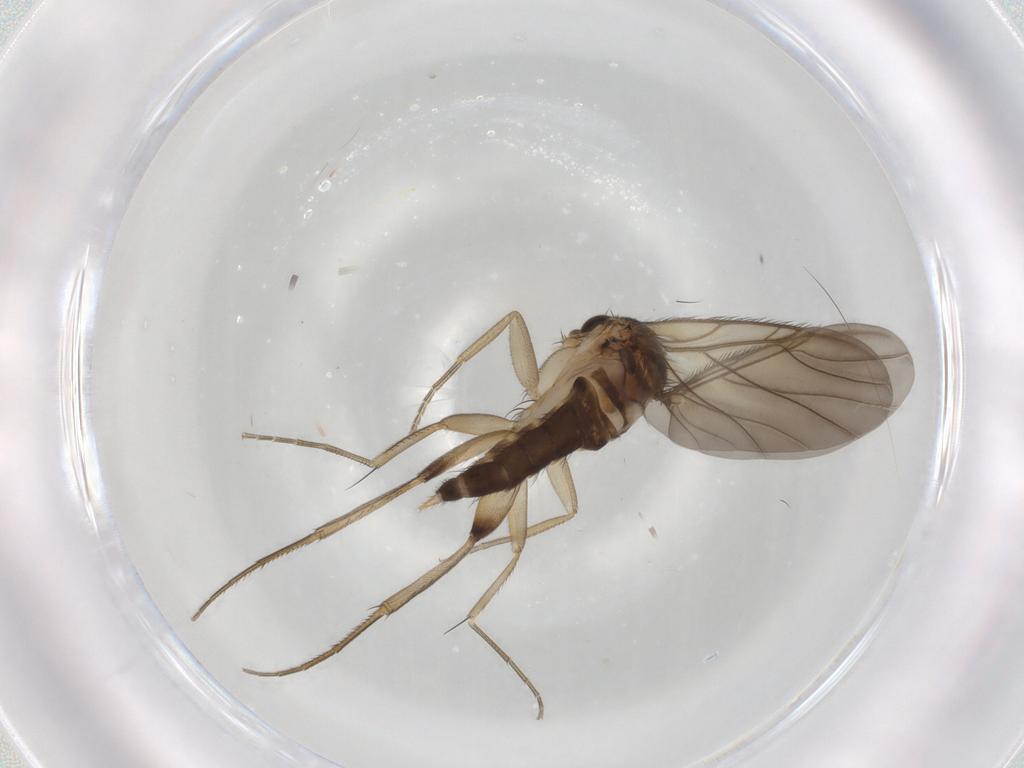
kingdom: Animalia
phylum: Arthropoda
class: Insecta
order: Diptera
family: Phoridae
